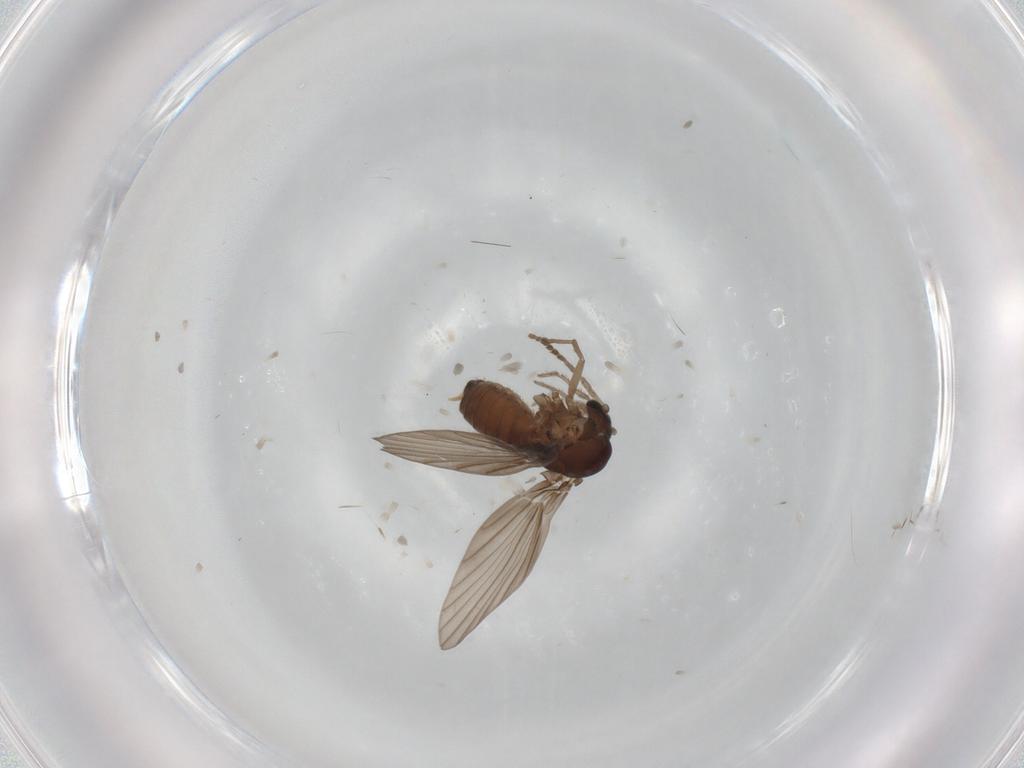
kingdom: Animalia
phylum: Arthropoda
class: Insecta
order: Diptera
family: Psychodidae
